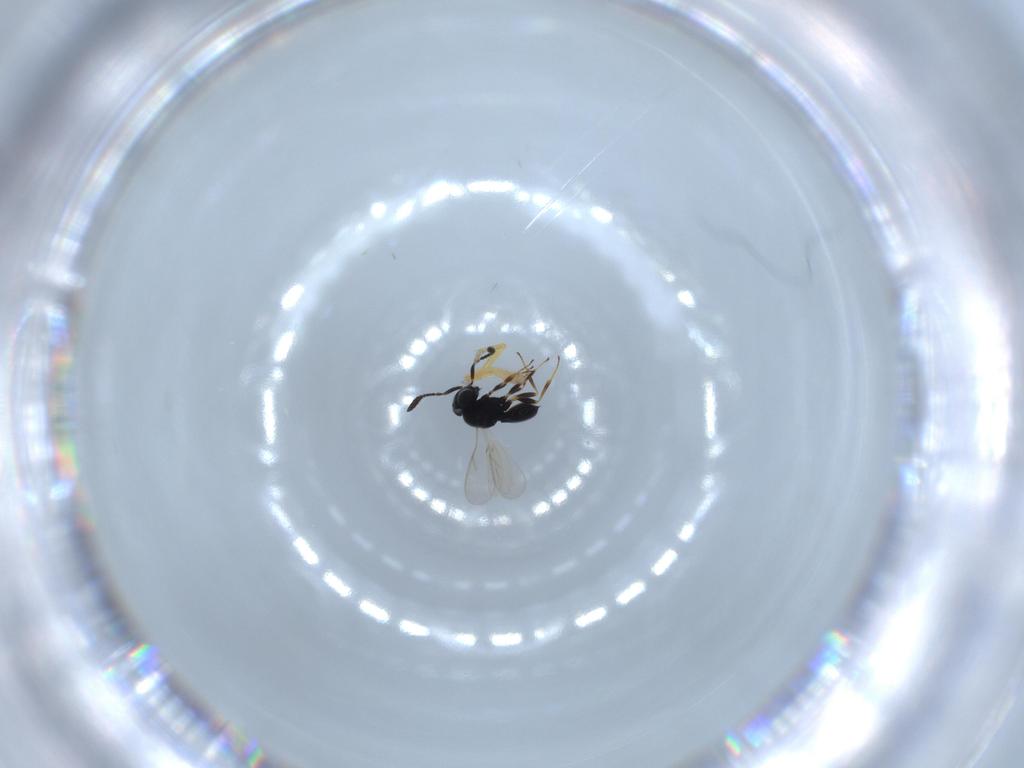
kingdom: Animalia
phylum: Arthropoda
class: Insecta
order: Hymenoptera
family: Scelionidae
